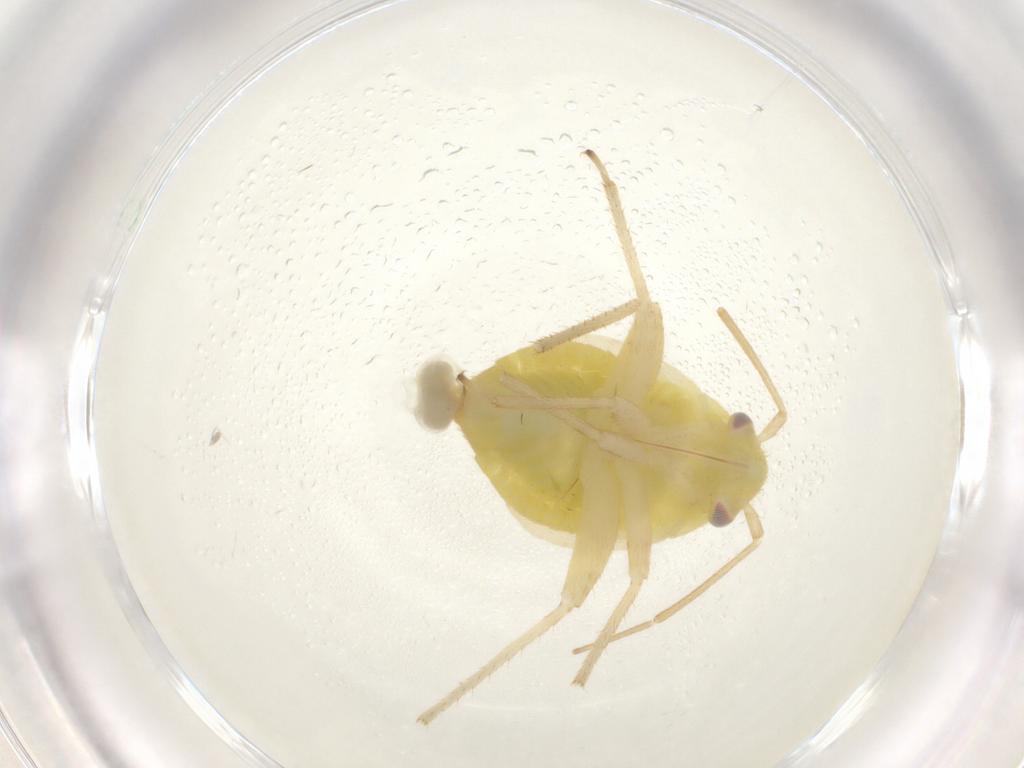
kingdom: Animalia
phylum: Arthropoda
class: Insecta
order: Hemiptera
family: Miridae
